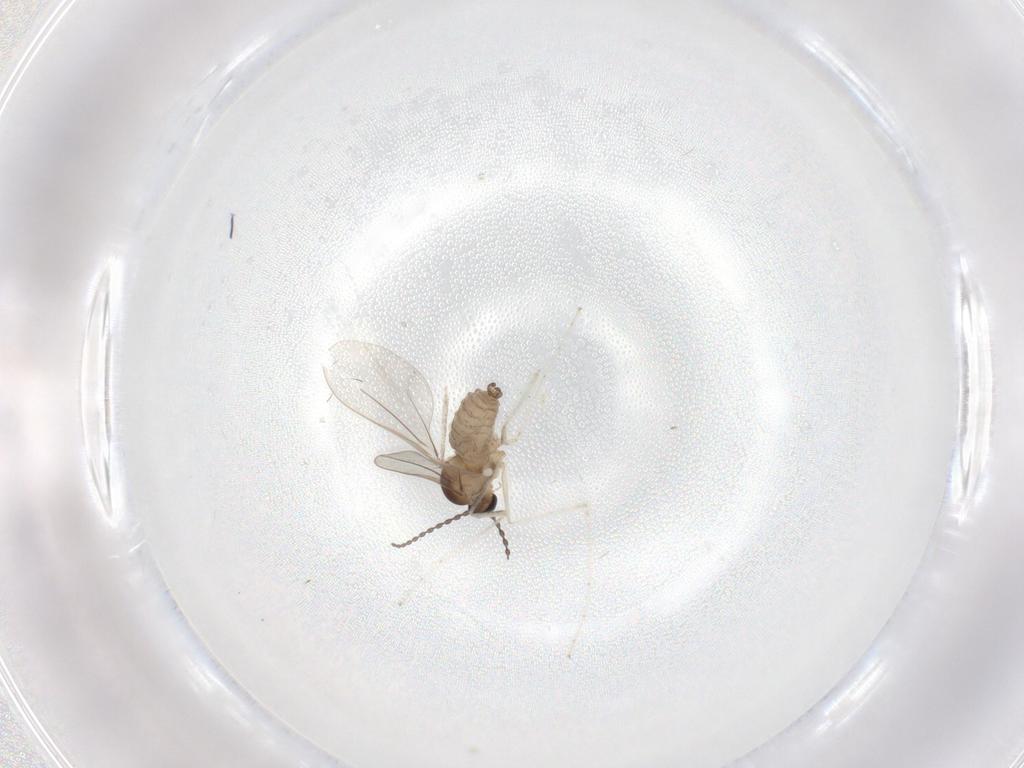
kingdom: Animalia
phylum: Arthropoda
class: Insecta
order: Diptera
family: Cecidomyiidae
